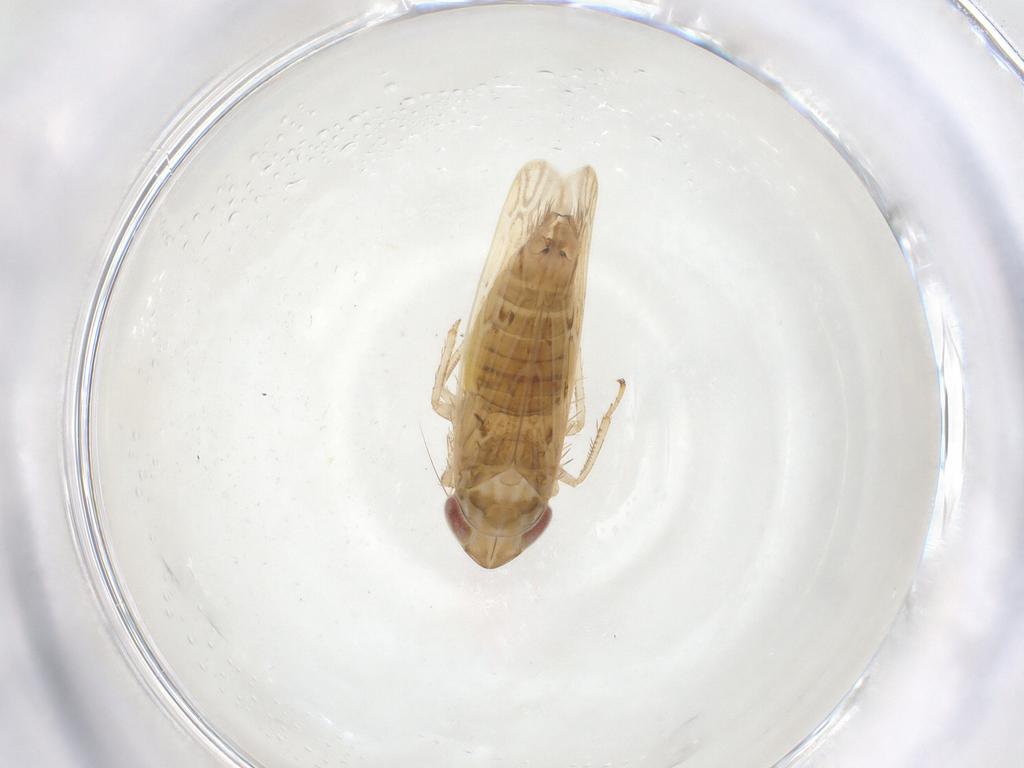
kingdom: Animalia
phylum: Arthropoda
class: Insecta
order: Hemiptera
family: Cicadellidae
